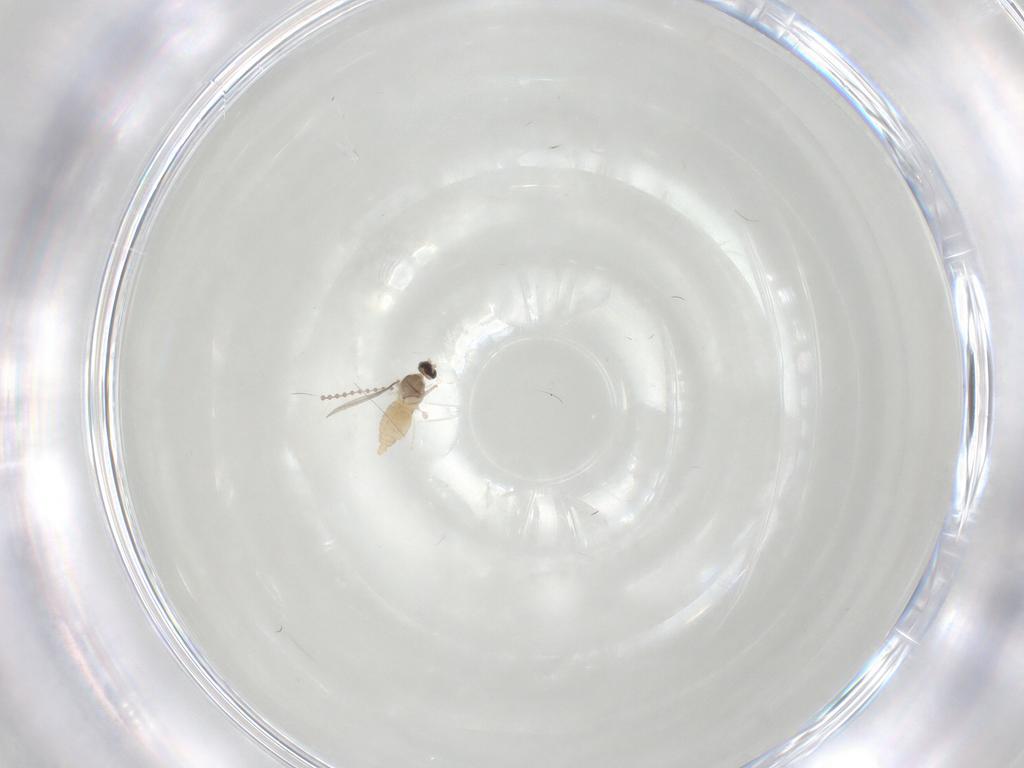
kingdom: Animalia
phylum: Arthropoda
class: Insecta
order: Diptera
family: Cecidomyiidae
